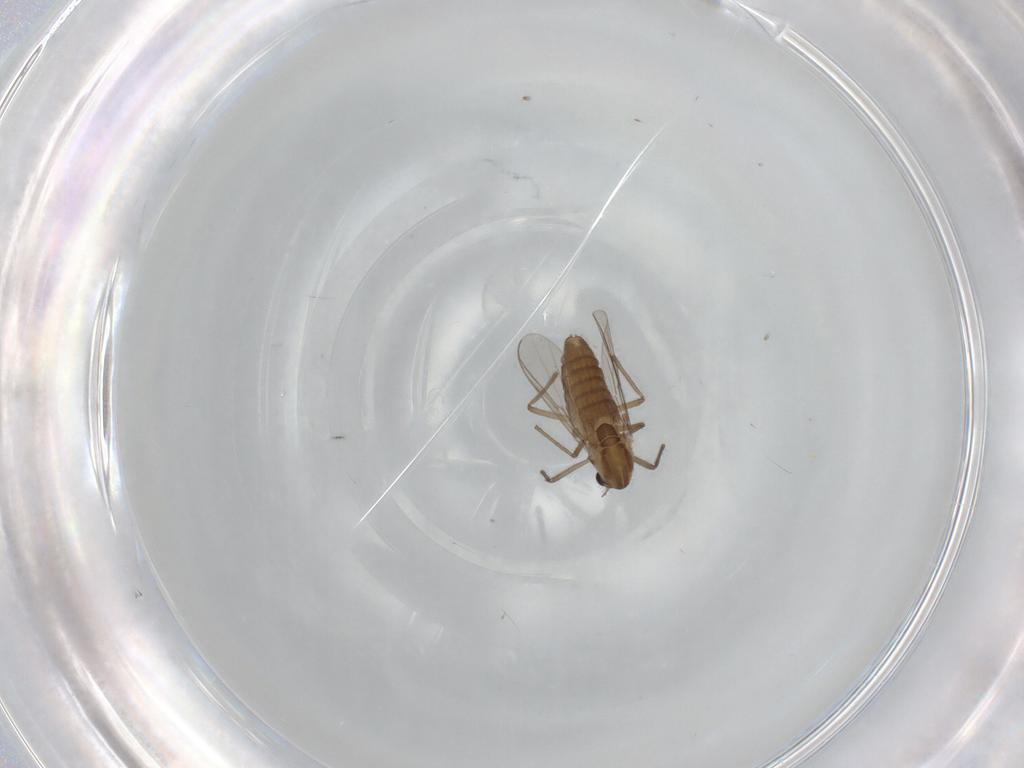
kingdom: Animalia
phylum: Arthropoda
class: Insecta
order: Diptera
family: Chironomidae
